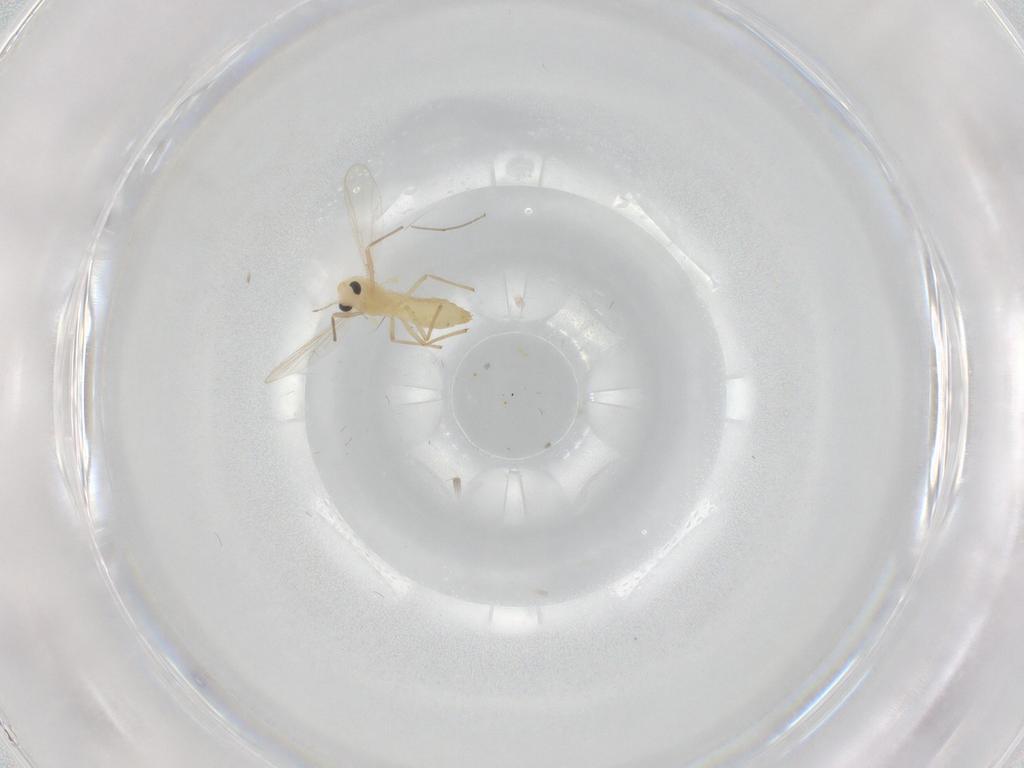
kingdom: Animalia
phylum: Arthropoda
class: Insecta
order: Diptera
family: Chironomidae
